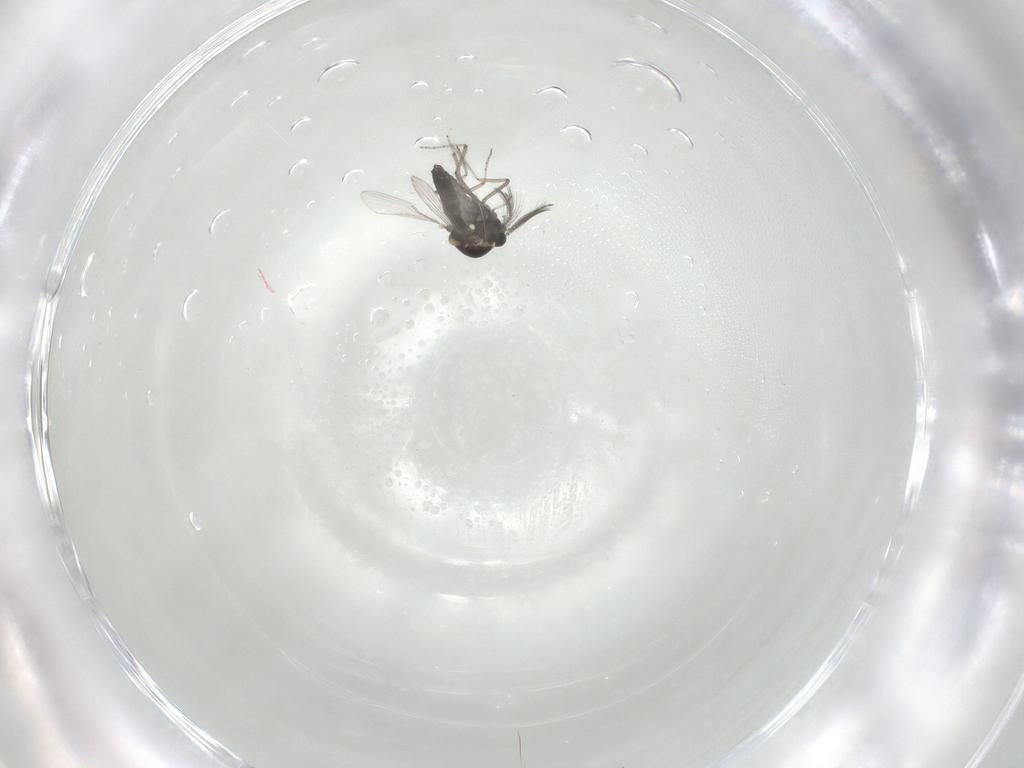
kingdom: Animalia
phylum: Arthropoda
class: Insecta
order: Diptera
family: Ceratopogonidae
